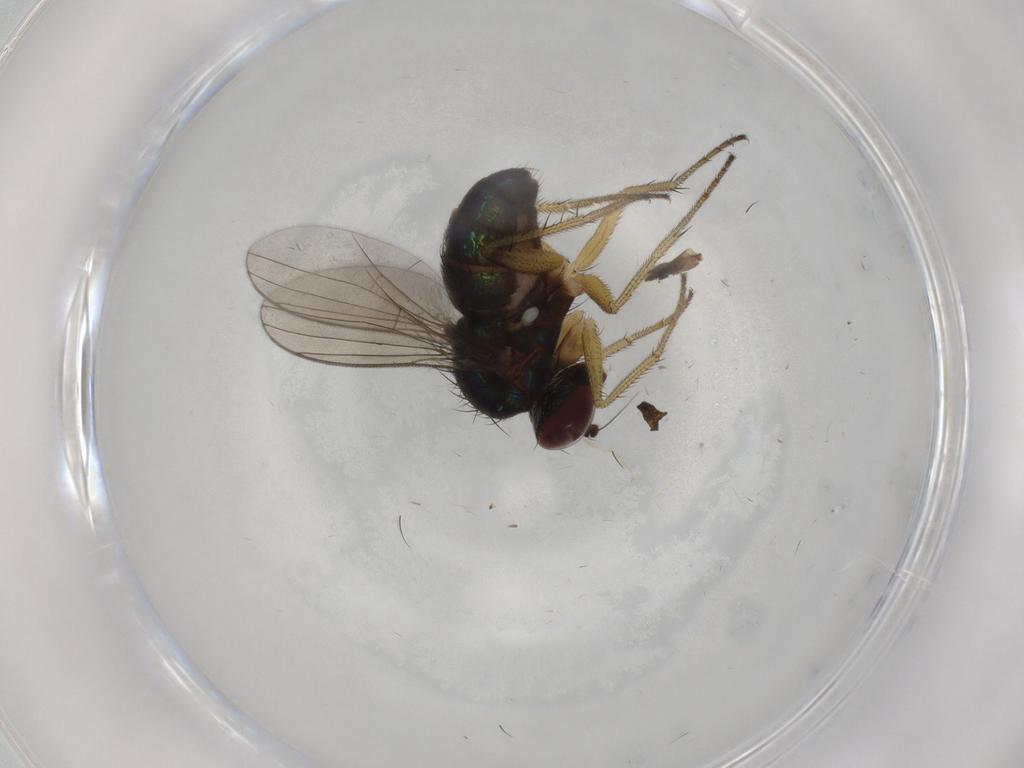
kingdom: Animalia
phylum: Arthropoda
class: Insecta
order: Diptera
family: Dolichopodidae
